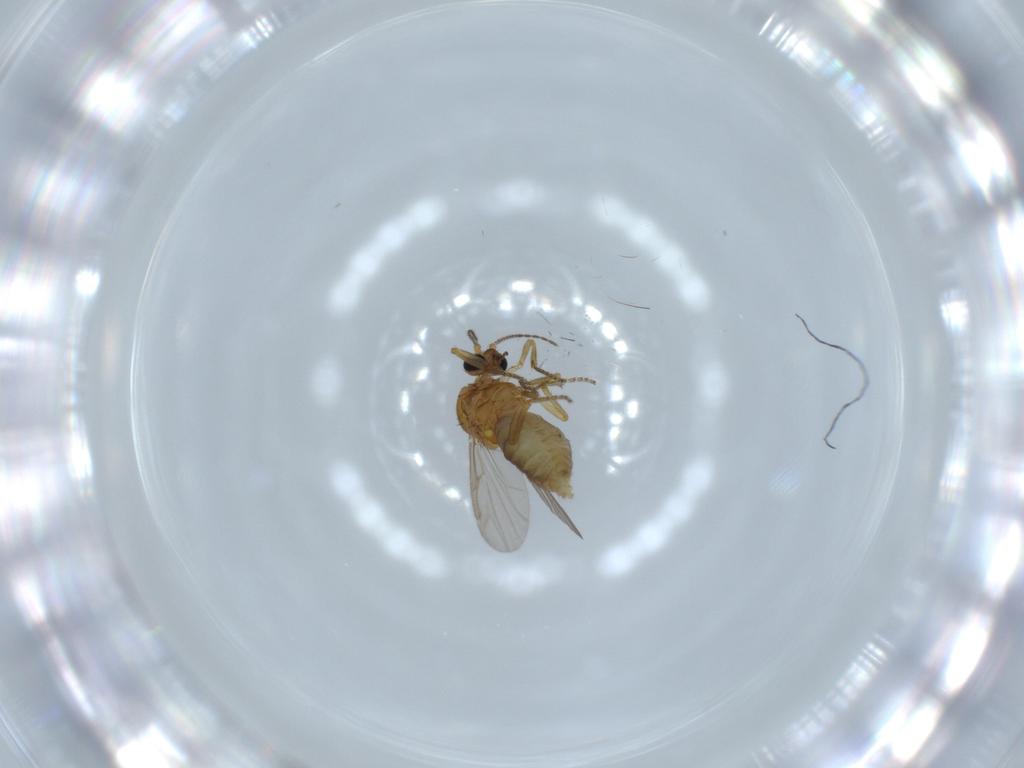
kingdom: Animalia
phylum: Arthropoda
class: Insecta
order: Diptera
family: Ceratopogonidae
